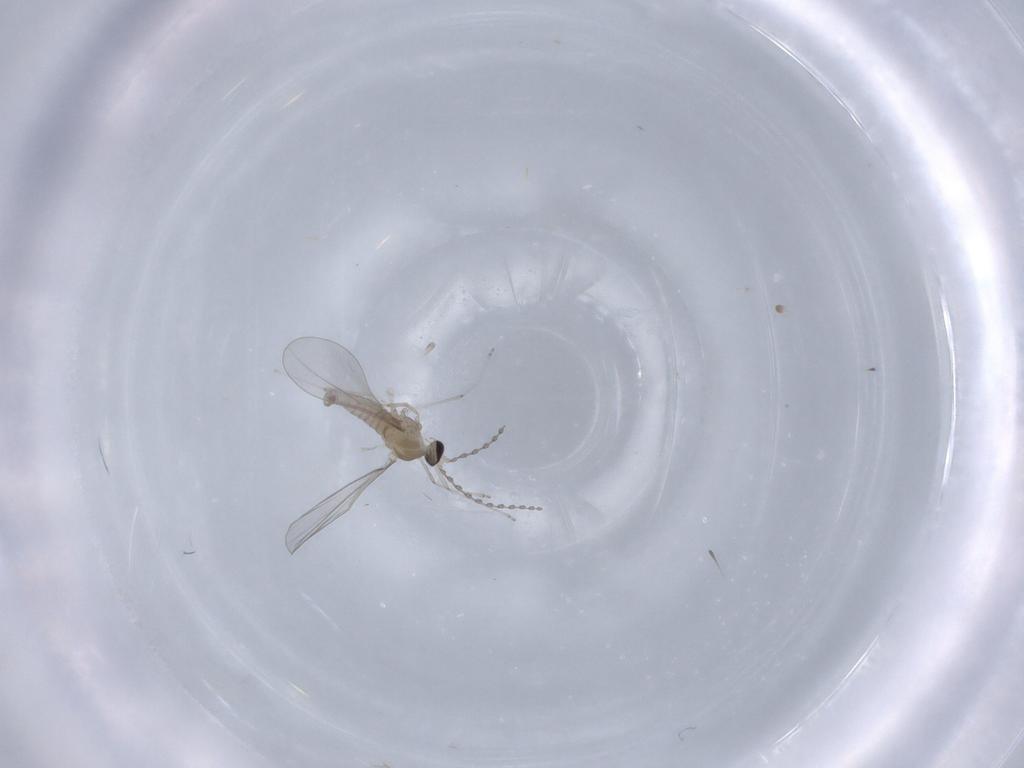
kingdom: Animalia
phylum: Arthropoda
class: Insecta
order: Diptera
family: Cecidomyiidae
